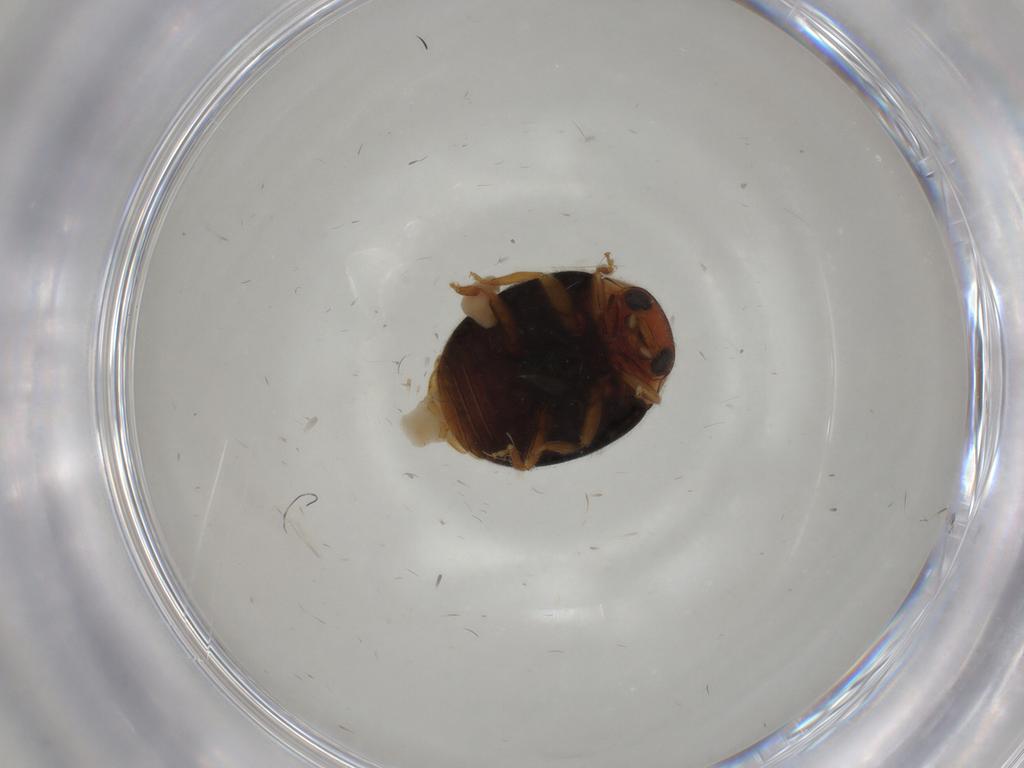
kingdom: Animalia
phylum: Arthropoda
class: Insecta
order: Coleoptera
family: Coccinellidae
